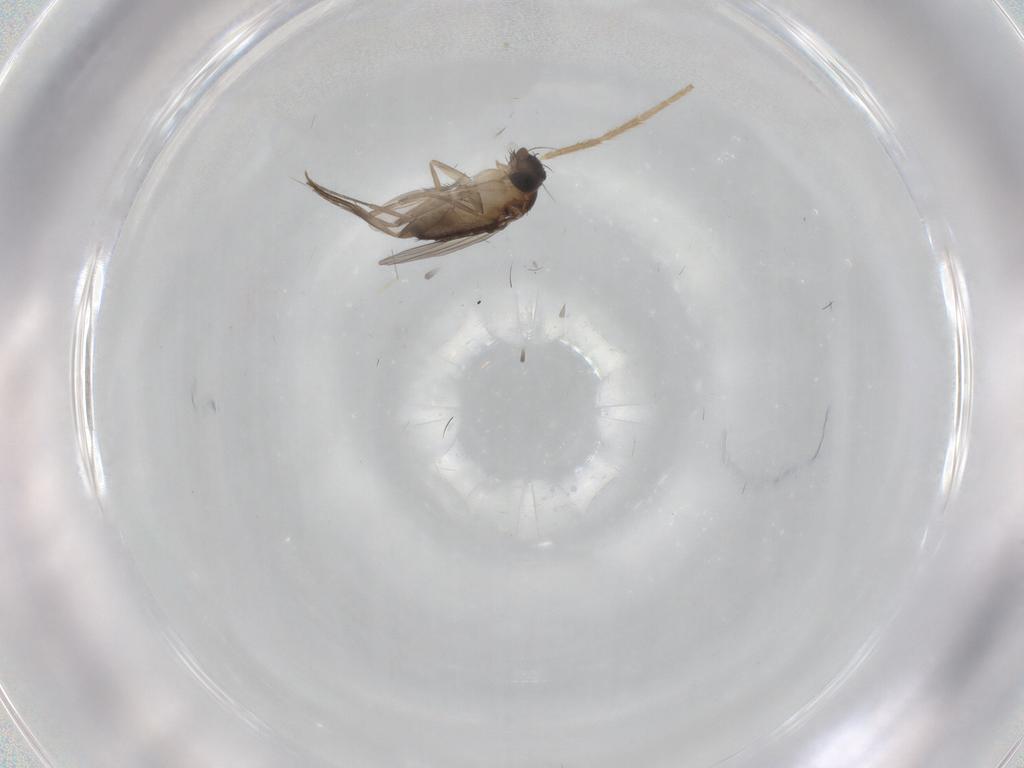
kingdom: Animalia
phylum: Arthropoda
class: Insecta
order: Diptera
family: Phoridae
